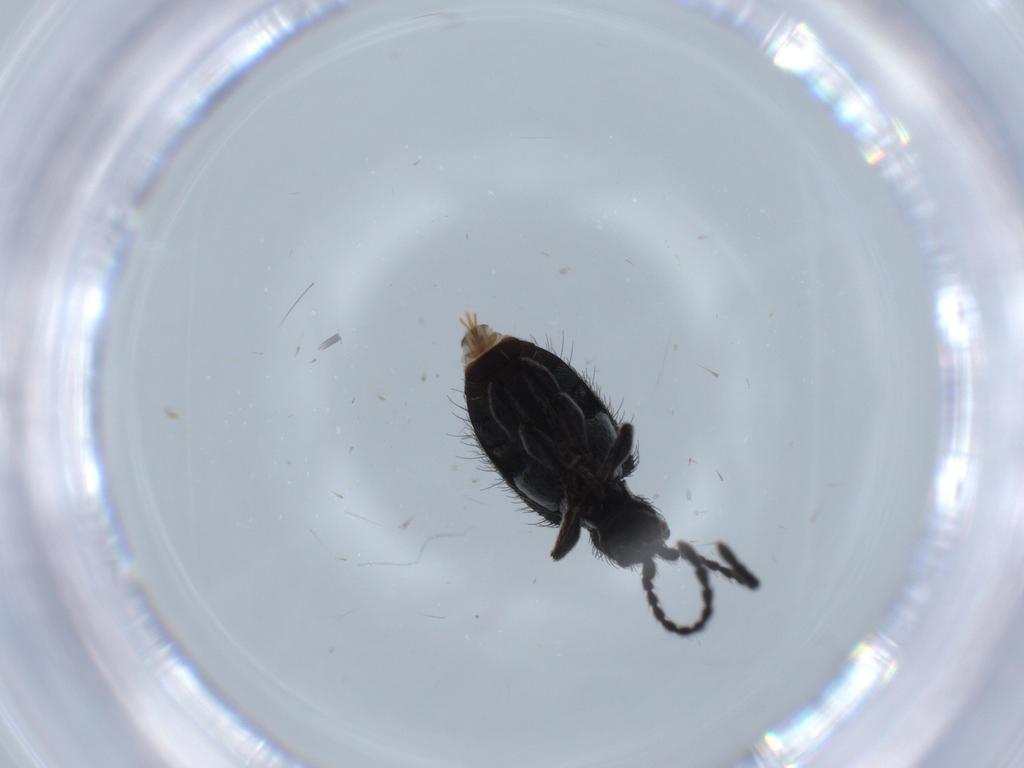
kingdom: Animalia
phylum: Arthropoda
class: Insecta
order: Coleoptera
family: Ptinidae
